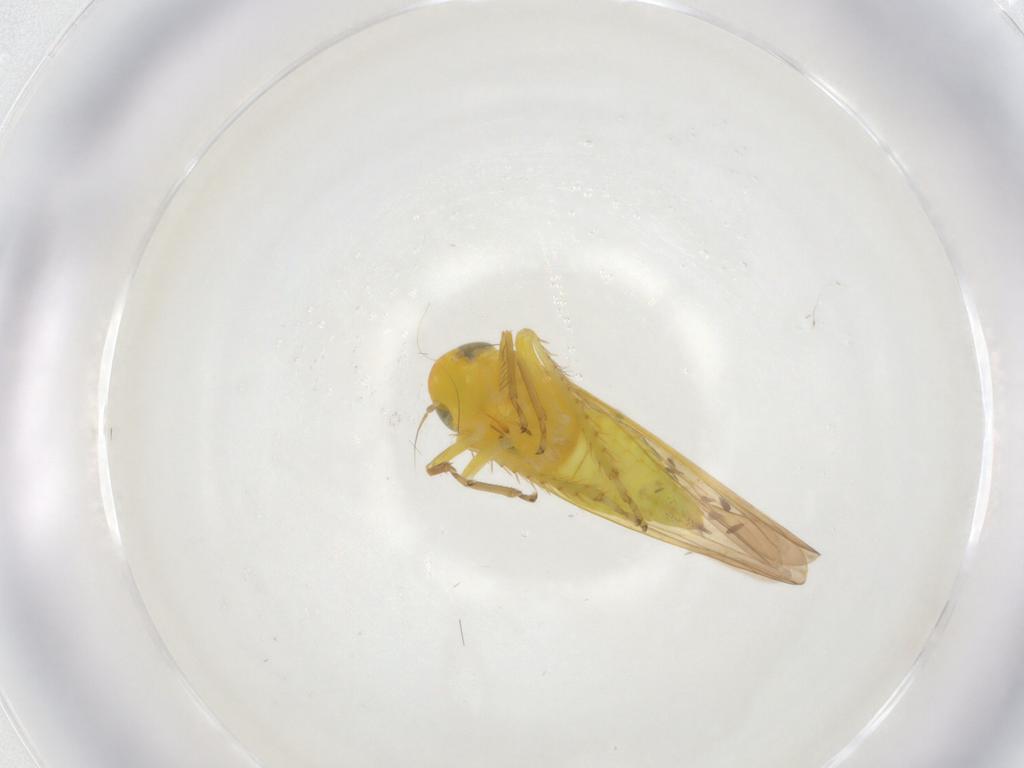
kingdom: Animalia
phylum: Arthropoda
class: Insecta
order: Hemiptera
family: Cicadellidae
